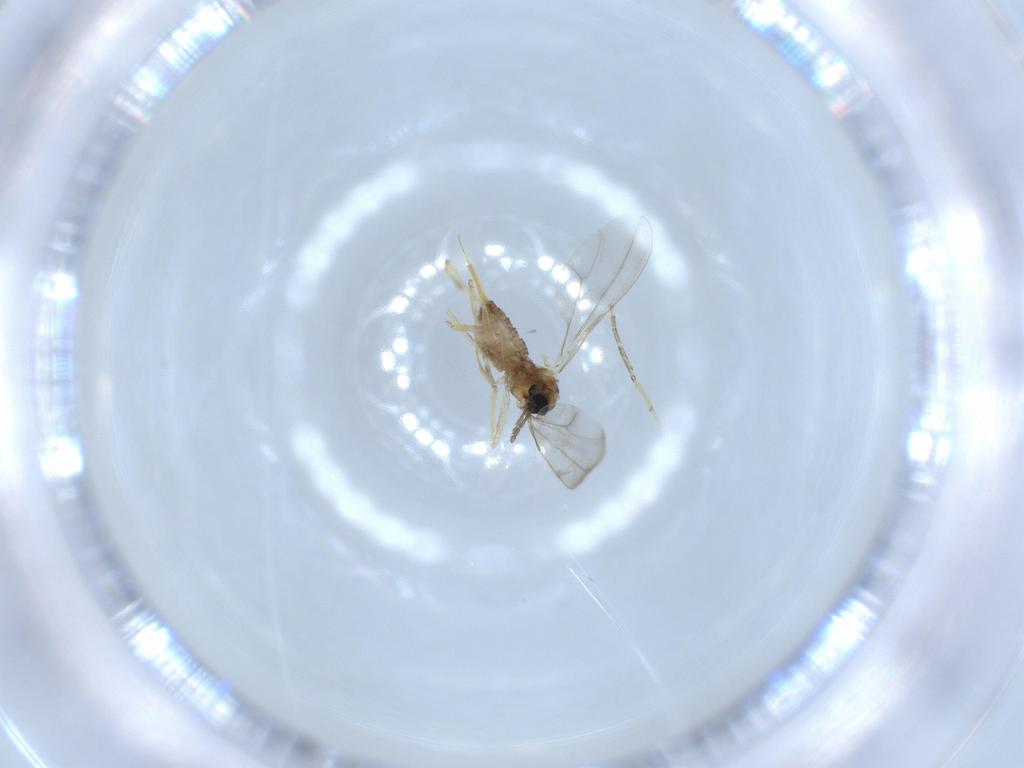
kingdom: Animalia
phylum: Arthropoda
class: Insecta
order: Diptera
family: Cecidomyiidae
